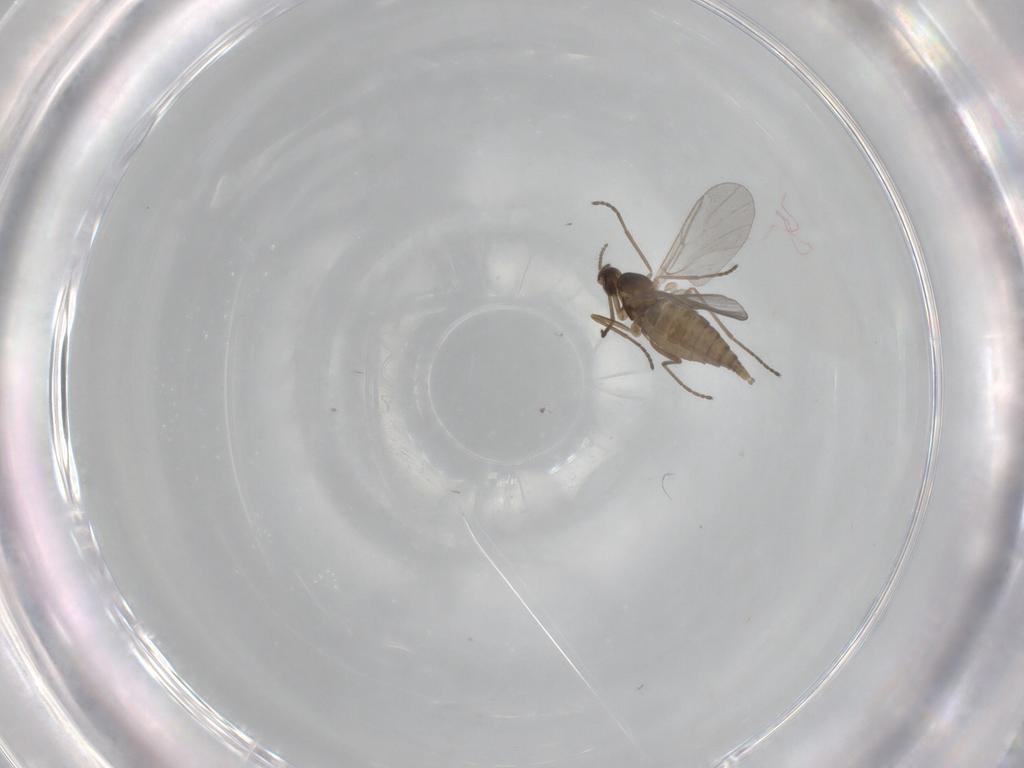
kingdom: Animalia
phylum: Arthropoda
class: Insecta
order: Diptera
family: Cecidomyiidae
